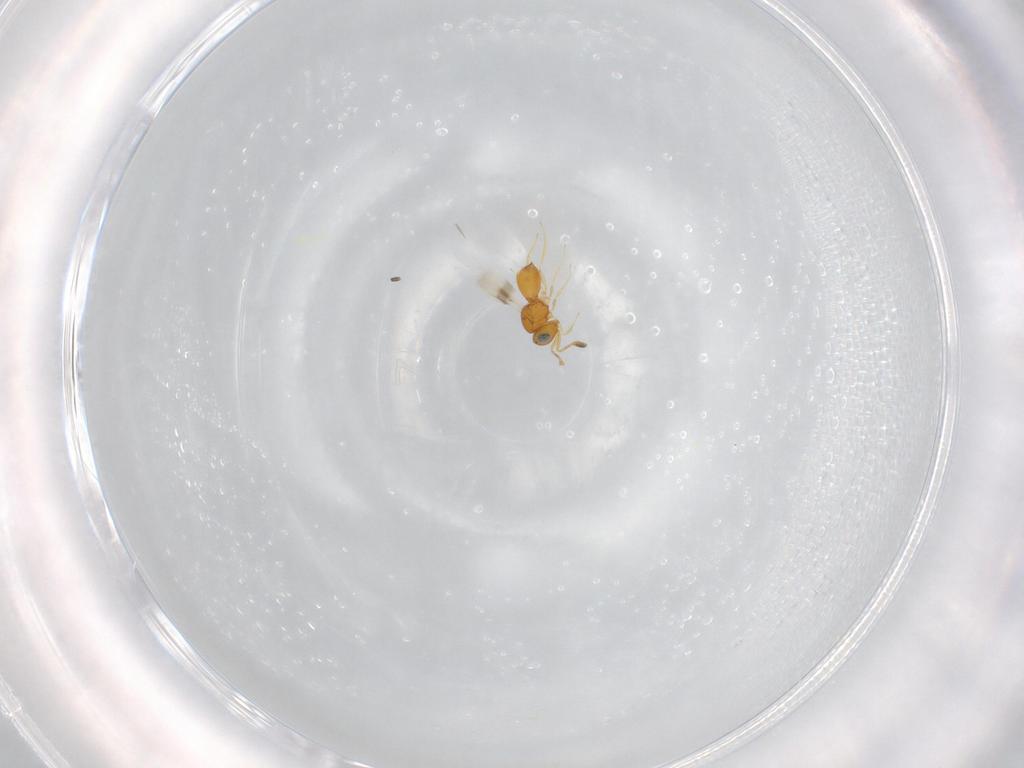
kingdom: Animalia
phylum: Arthropoda
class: Insecta
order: Hymenoptera
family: Scelionidae
